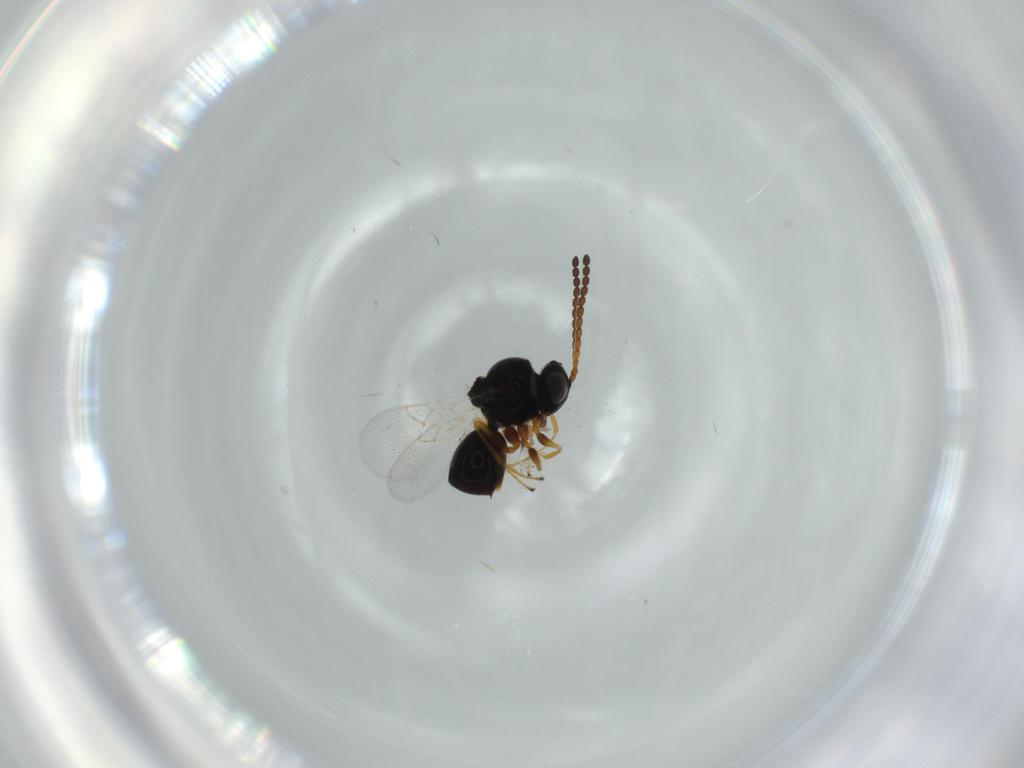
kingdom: Animalia
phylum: Arthropoda
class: Insecta
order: Hymenoptera
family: Figitidae
